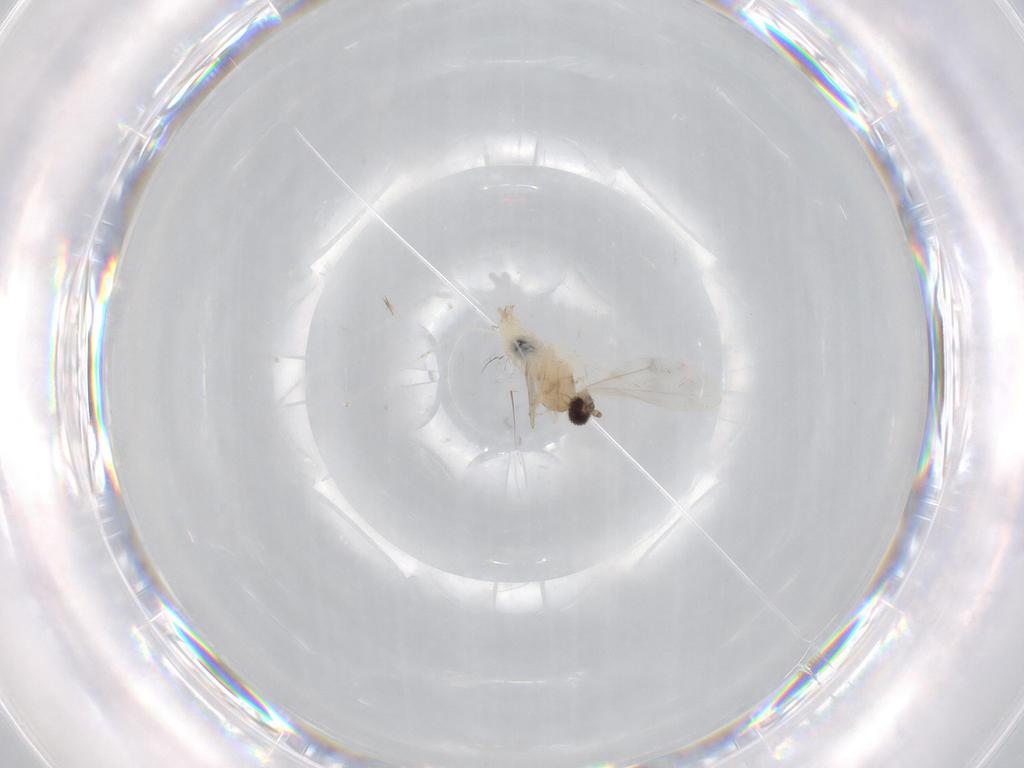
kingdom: Animalia
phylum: Arthropoda
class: Insecta
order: Diptera
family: Cecidomyiidae
